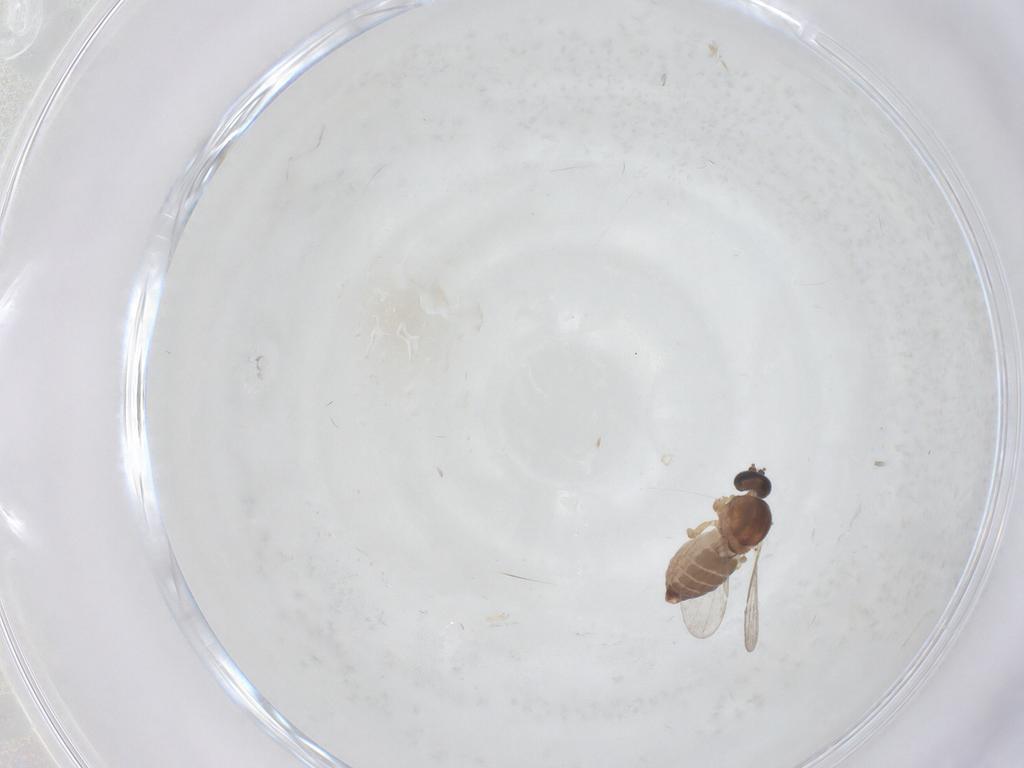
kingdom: Animalia
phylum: Arthropoda
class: Insecta
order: Diptera
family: Ceratopogonidae
